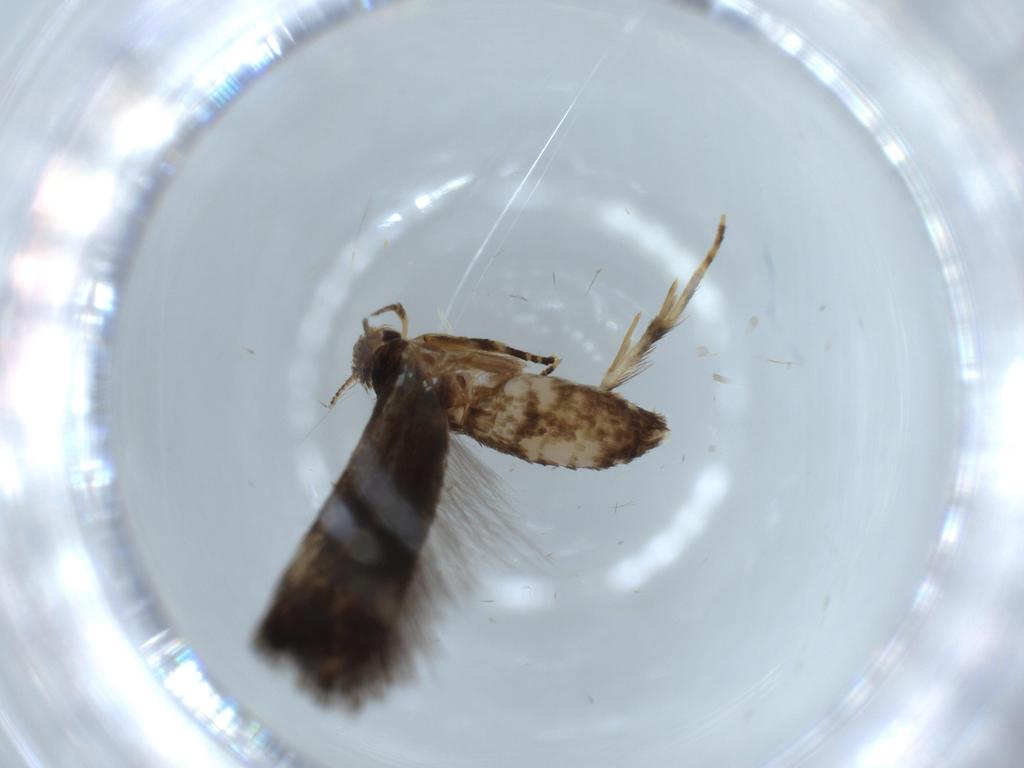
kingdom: Animalia
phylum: Arthropoda
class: Insecta
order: Lepidoptera
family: Gelechiidae
